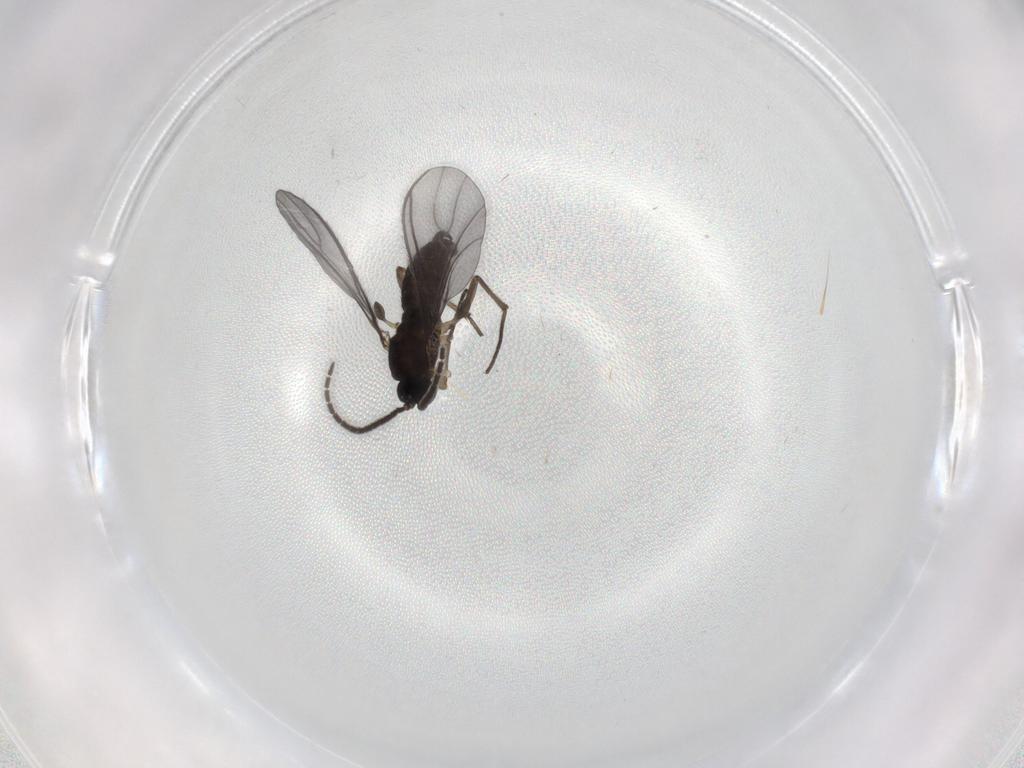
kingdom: Animalia
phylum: Arthropoda
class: Insecta
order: Diptera
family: Sciaridae
